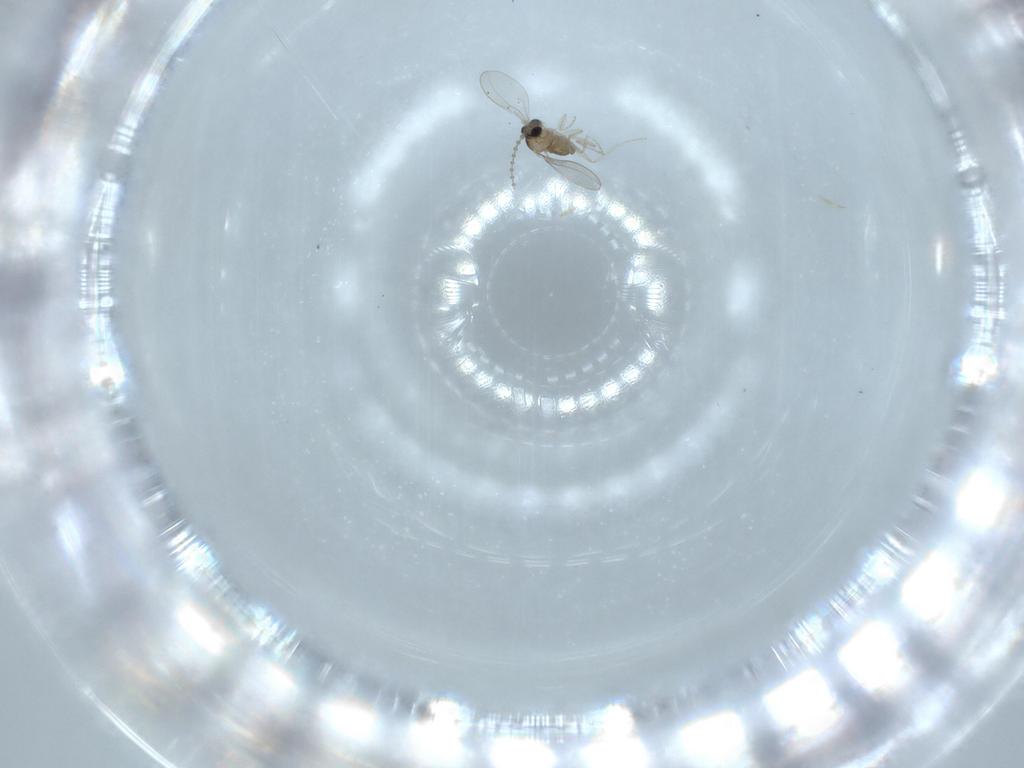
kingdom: Animalia
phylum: Arthropoda
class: Insecta
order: Diptera
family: Cecidomyiidae
